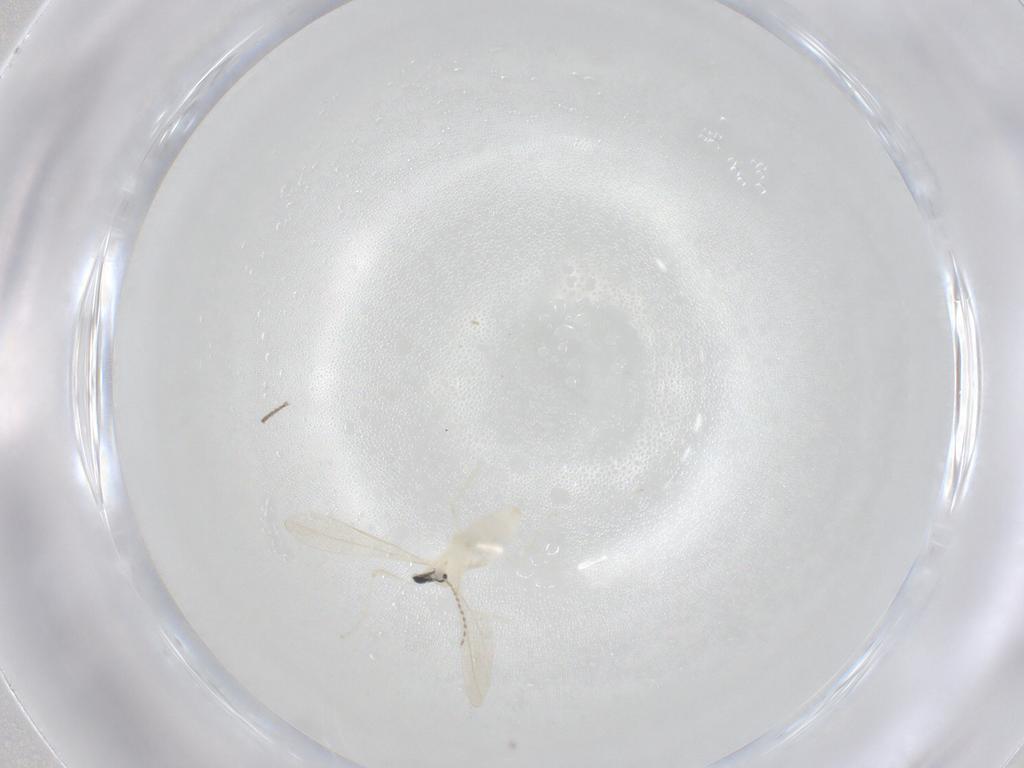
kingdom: Animalia
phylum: Arthropoda
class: Insecta
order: Diptera
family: Cecidomyiidae
